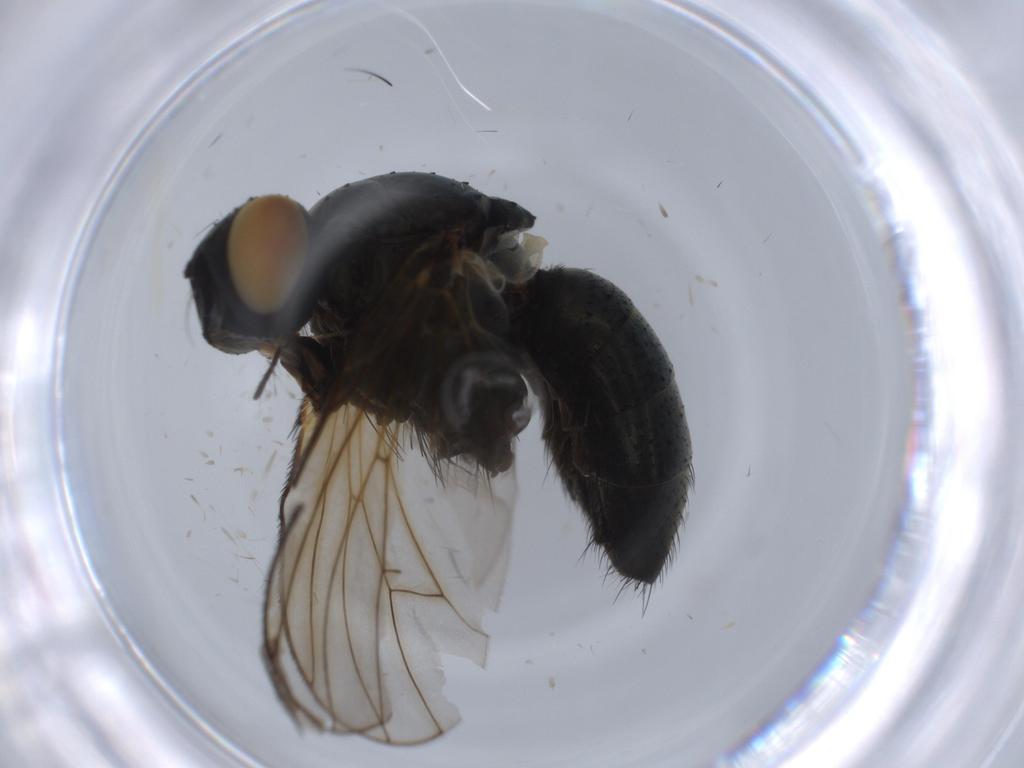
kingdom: Animalia
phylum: Arthropoda
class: Insecta
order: Diptera
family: Muscidae
